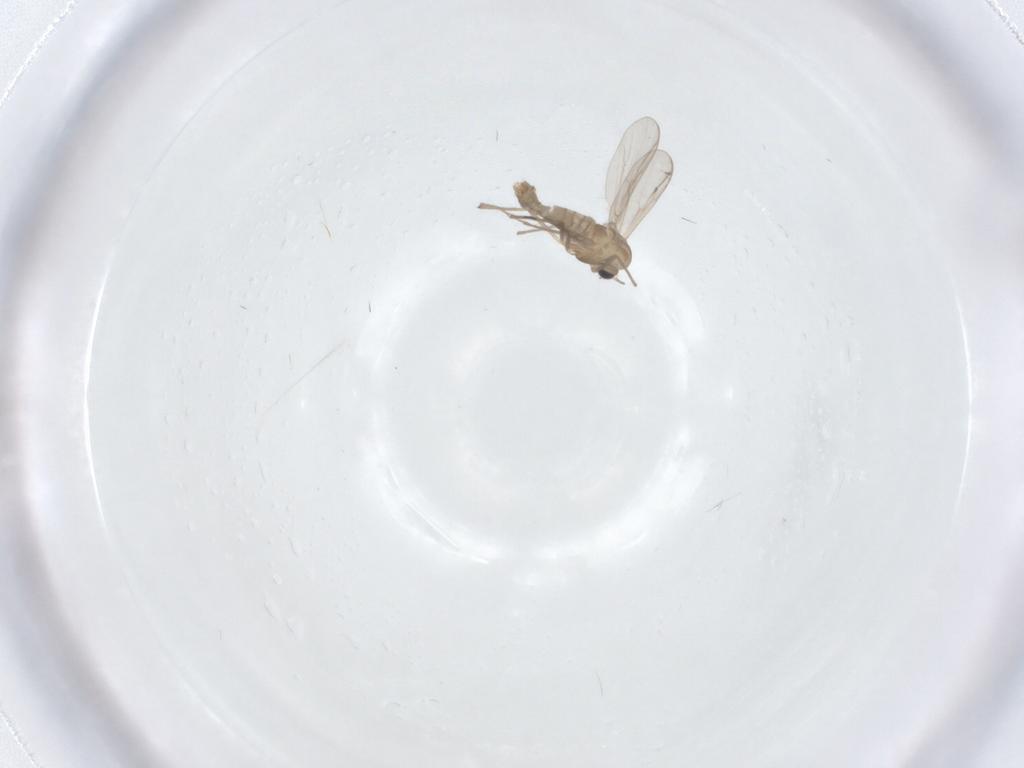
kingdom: Animalia
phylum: Arthropoda
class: Insecta
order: Diptera
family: Chironomidae
